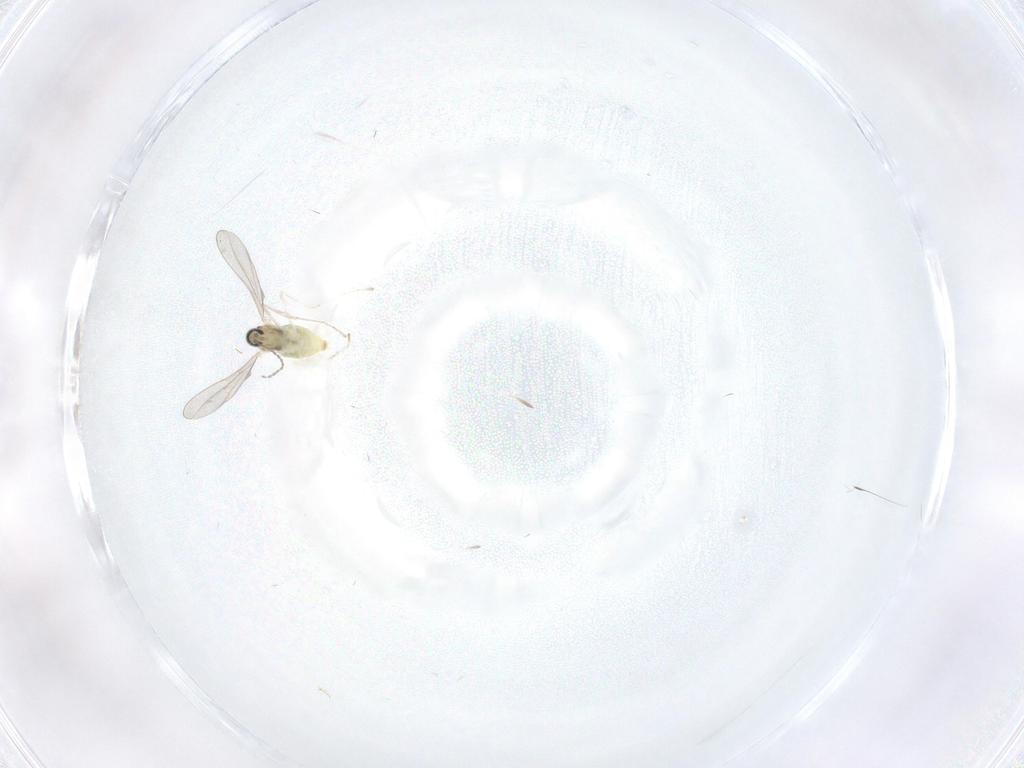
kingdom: Animalia
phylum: Arthropoda
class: Insecta
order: Diptera
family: Cecidomyiidae
